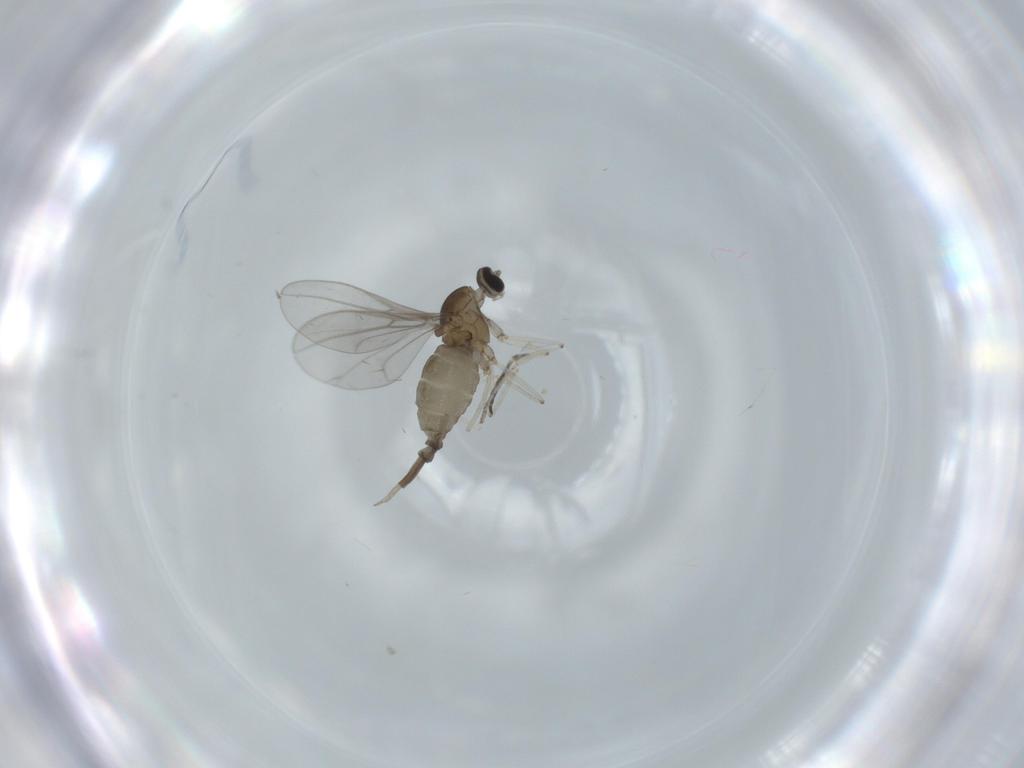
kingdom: Animalia
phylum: Arthropoda
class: Insecta
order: Diptera
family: Cecidomyiidae
